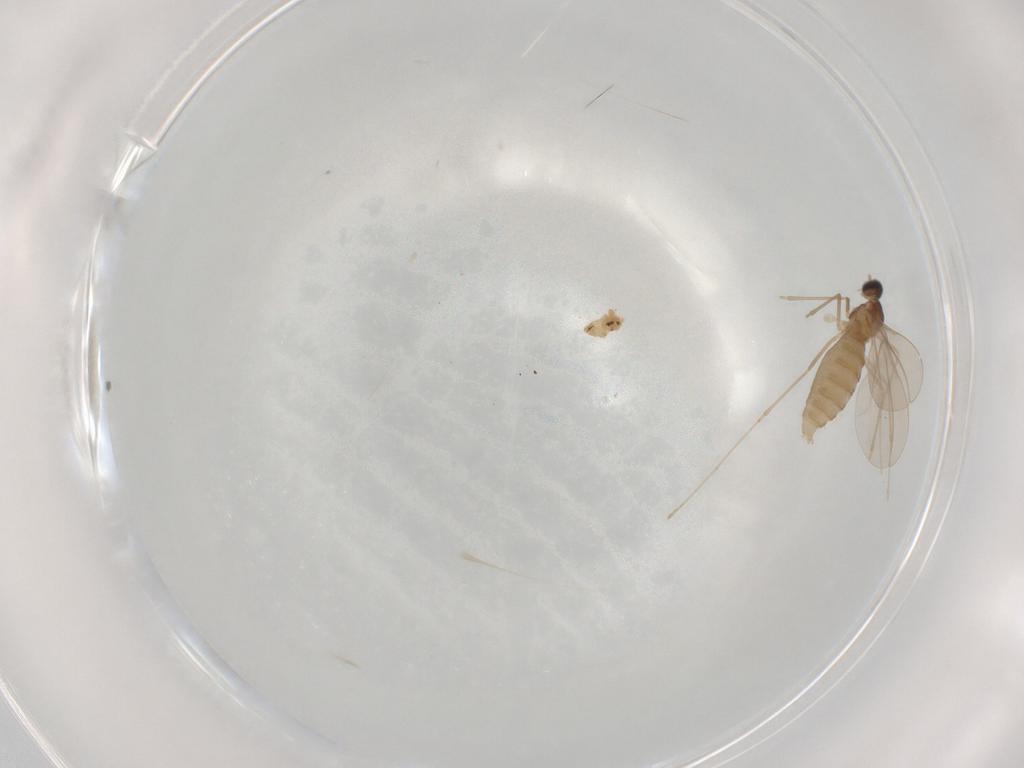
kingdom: Animalia
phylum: Arthropoda
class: Insecta
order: Diptera
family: Cecidomyiidae
